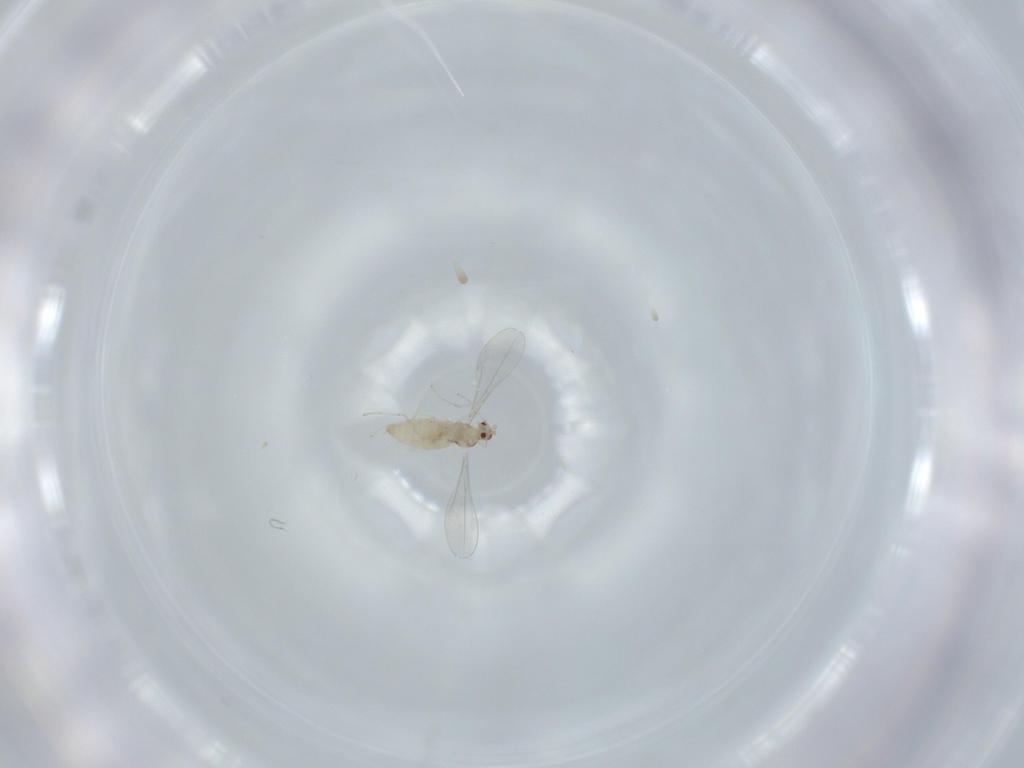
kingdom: Animalia
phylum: Arthropoda
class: Insecta
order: Diptera
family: Cecidomyiidae
